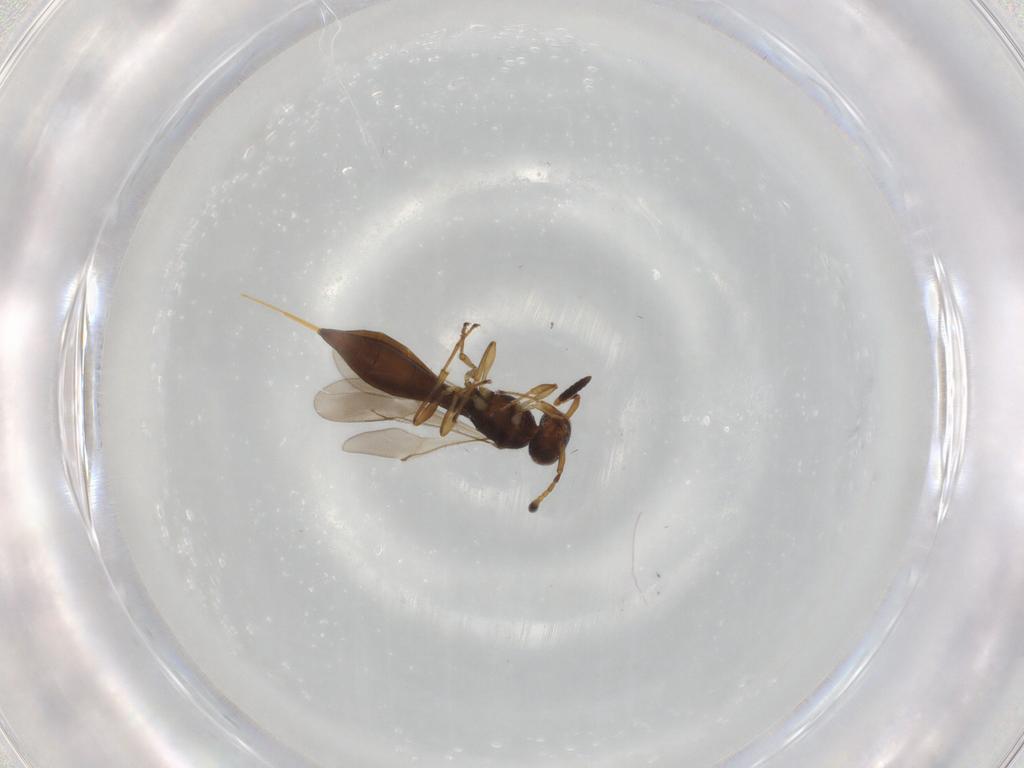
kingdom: Animalia
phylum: Arthropoda
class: Insecta
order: Hymenoptera
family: Scelionidae
